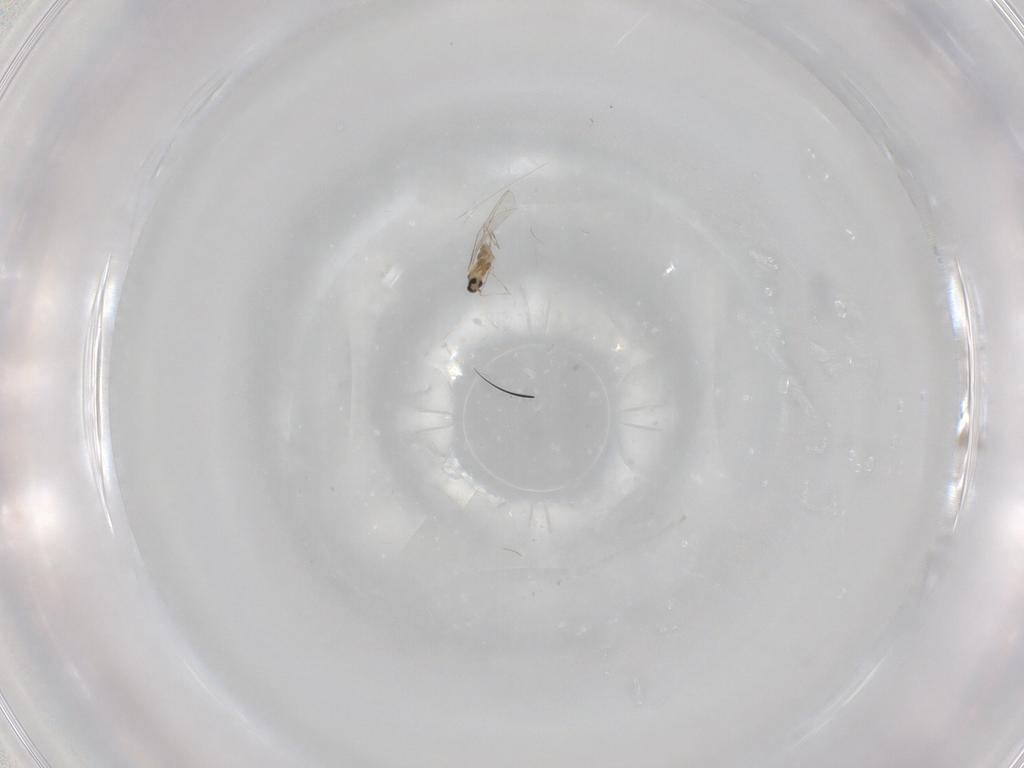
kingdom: Animalia
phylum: Arthropoda
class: Insecta
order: Diptera
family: Cecidomyiidae
